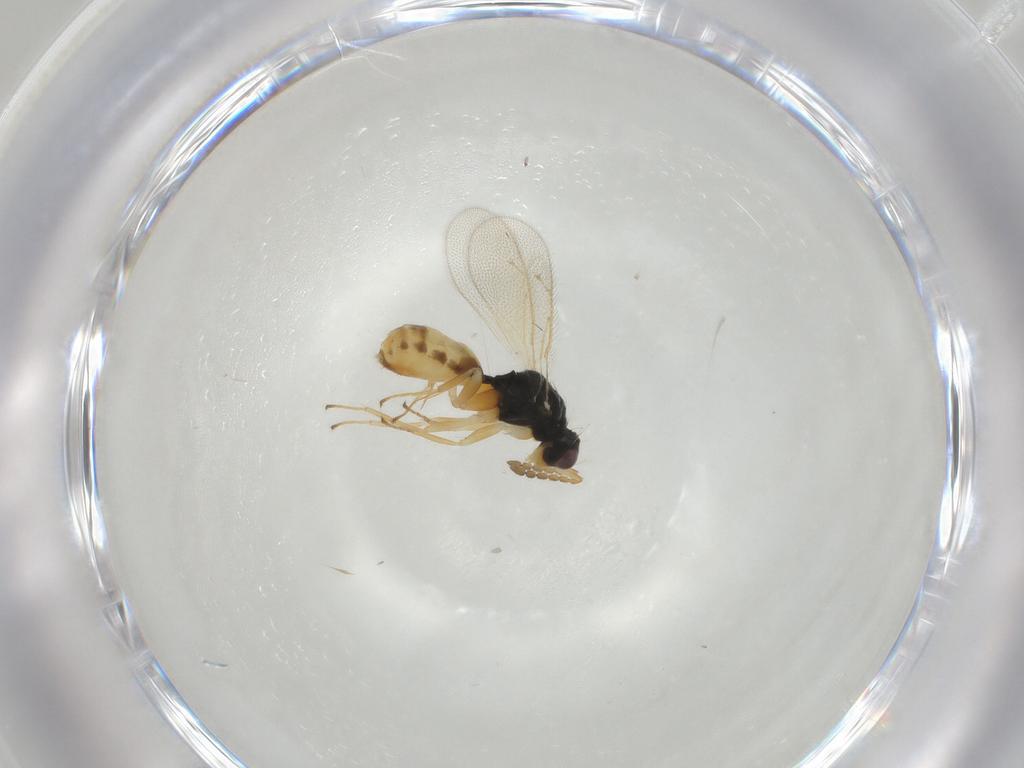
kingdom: Animalia
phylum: Arthropoda
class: Insecta
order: Hymenoptera
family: Eulophidae
